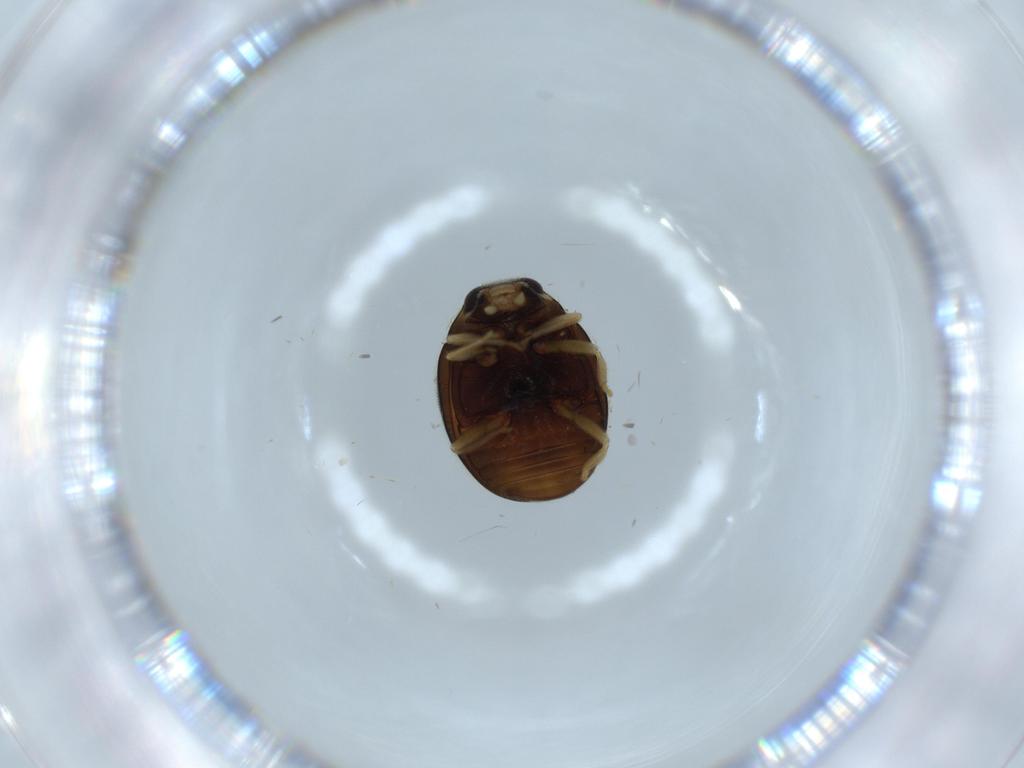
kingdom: Animalia
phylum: Arthropoda
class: Insecta
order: Coleoptera
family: Coccinellidae
